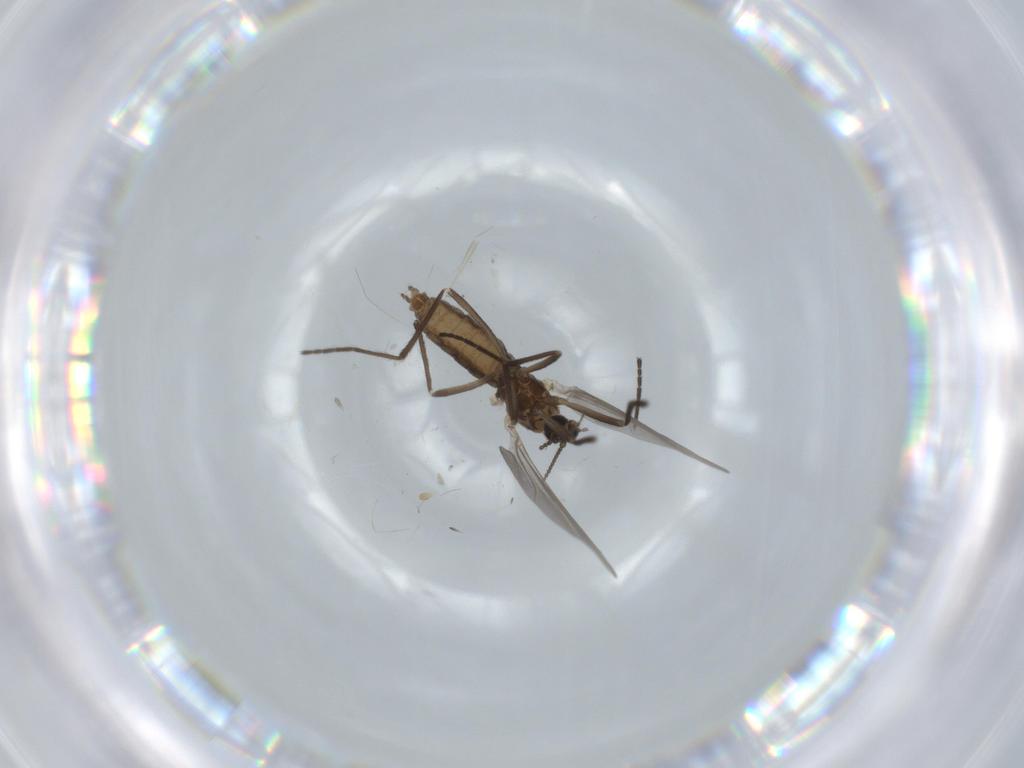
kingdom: Animalia
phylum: Arthropoda
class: Insecta
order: Diptera
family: Cecidomyiidae
